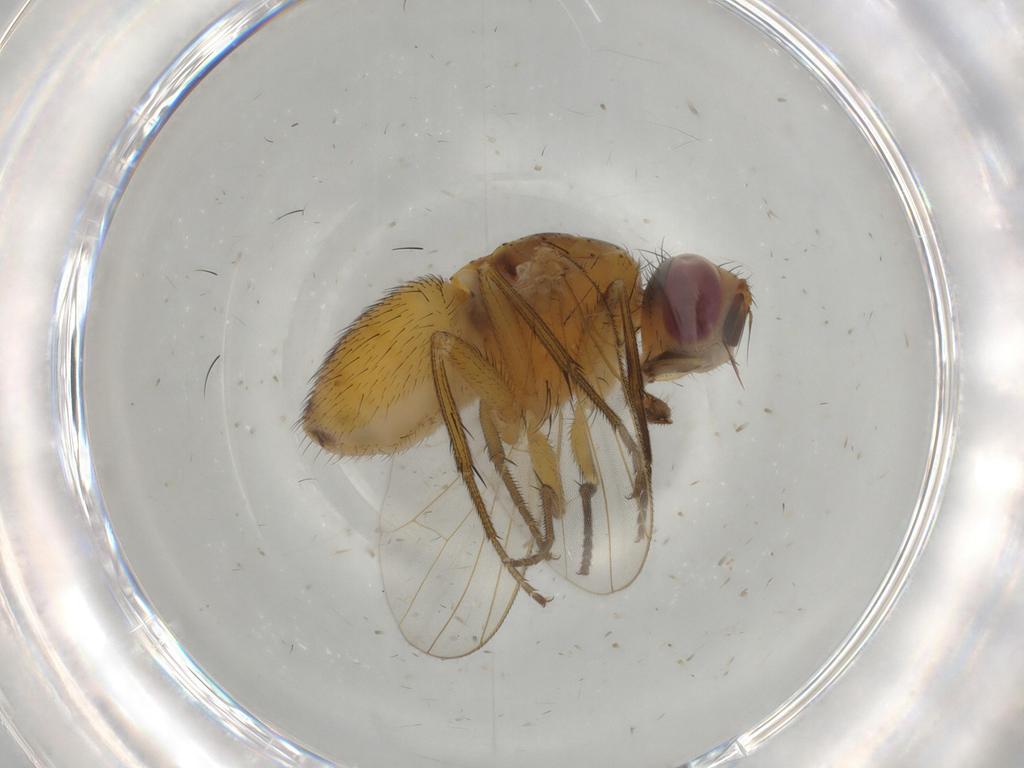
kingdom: Animalia
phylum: Arthropoda
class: Insecta
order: Diptera
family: Muscidae
